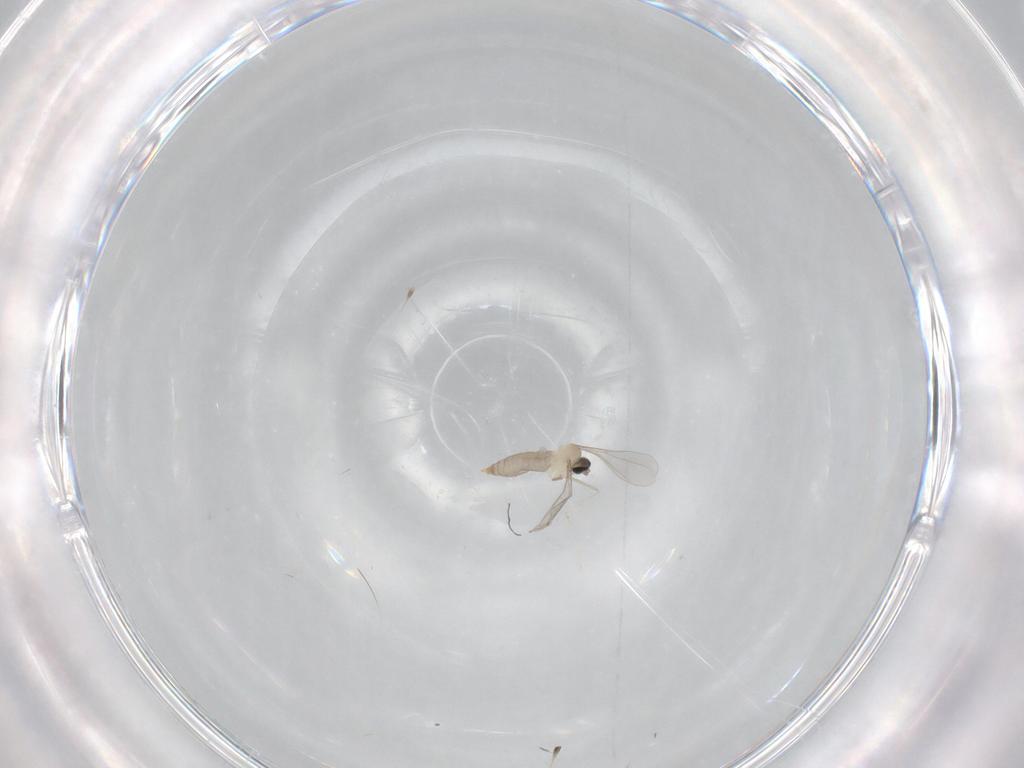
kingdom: Animalia
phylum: Arthropoda
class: Insecta
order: Diptera
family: Cecidomyiidae
